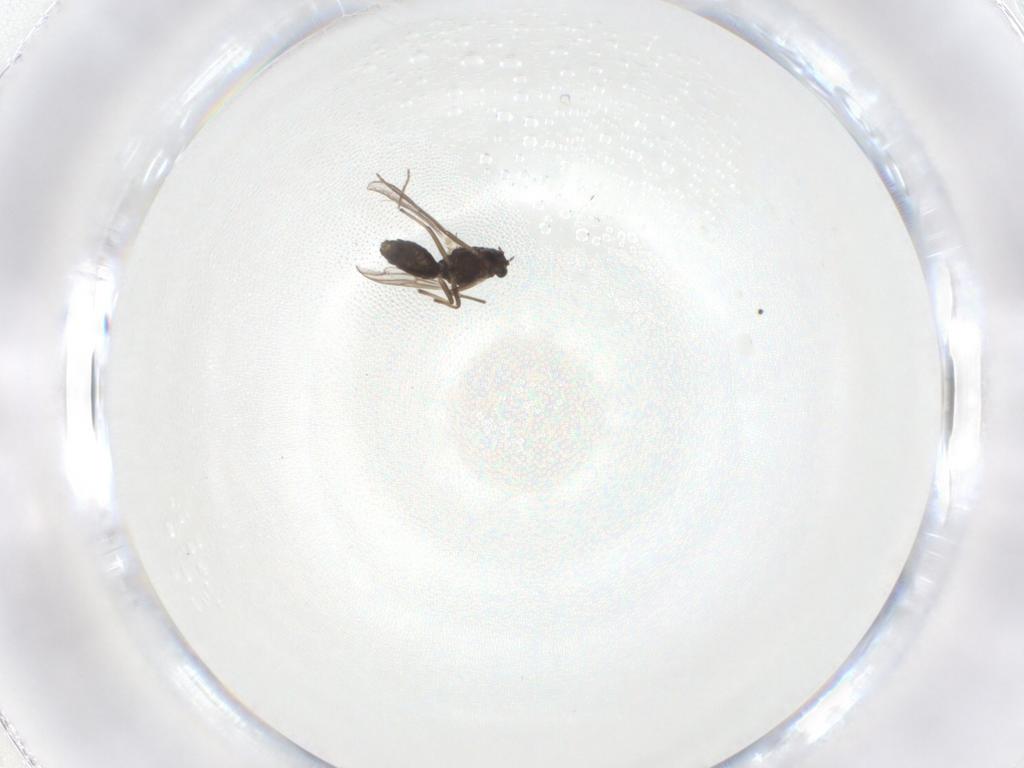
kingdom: Animalia
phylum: Arthropoda
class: Insecta
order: Diptera
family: Chironomidae
